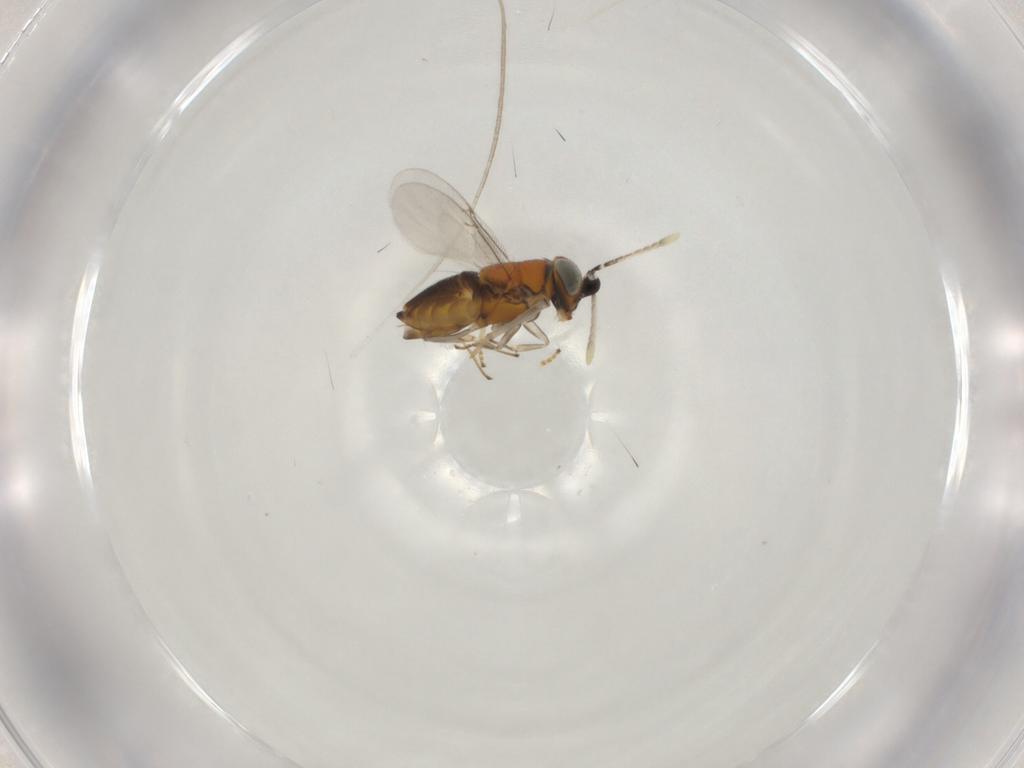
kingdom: Animalia
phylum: Arthropoda
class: Insecta
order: Hymenoptera
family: Encyrtidae
